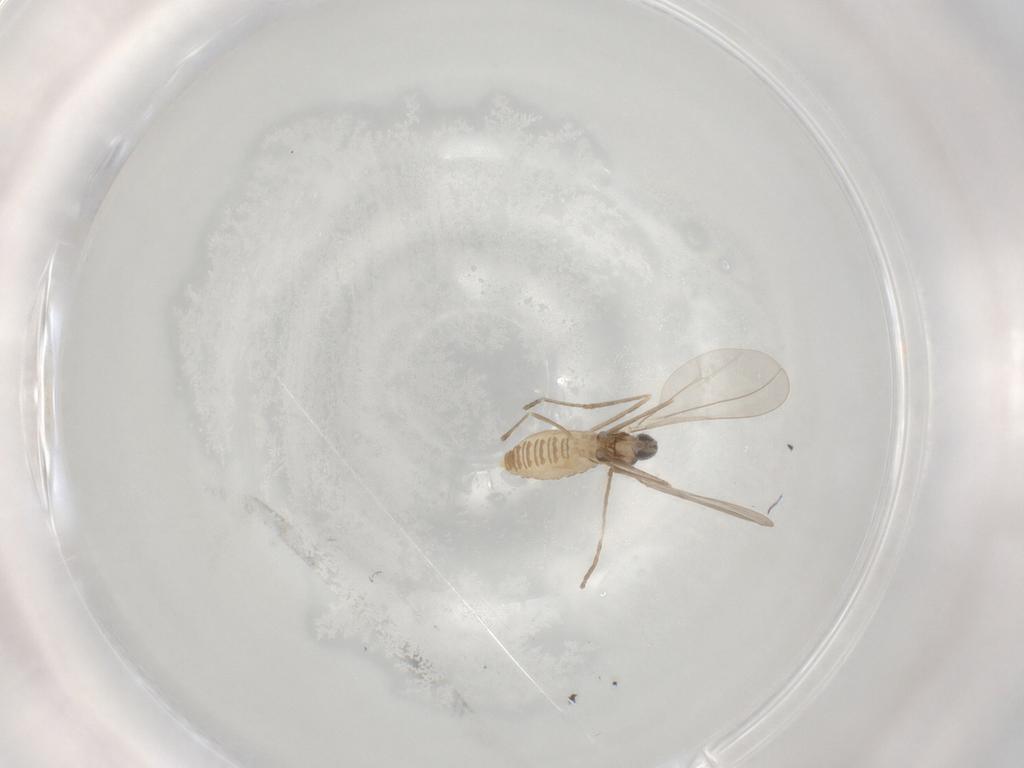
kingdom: Animalia
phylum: Arthropoda
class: Insecta
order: Diptera
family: Cecidomyiidae
